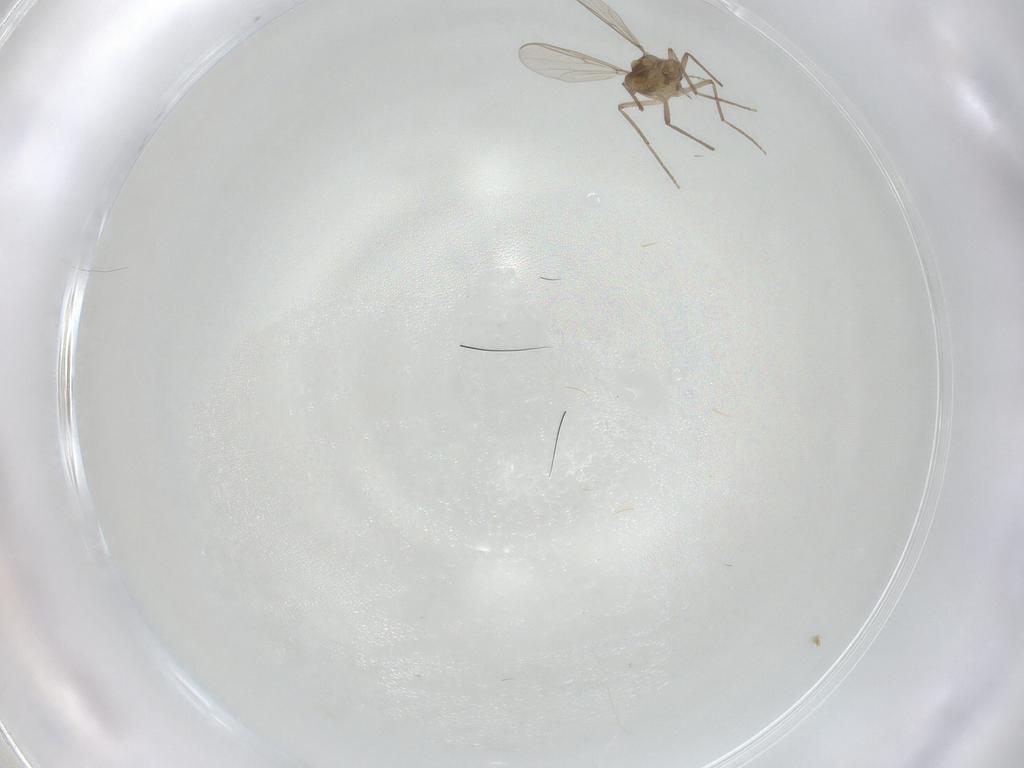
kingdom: Animalia
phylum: Arthropoda
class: Insecta
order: Diptera
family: Chironomidae
